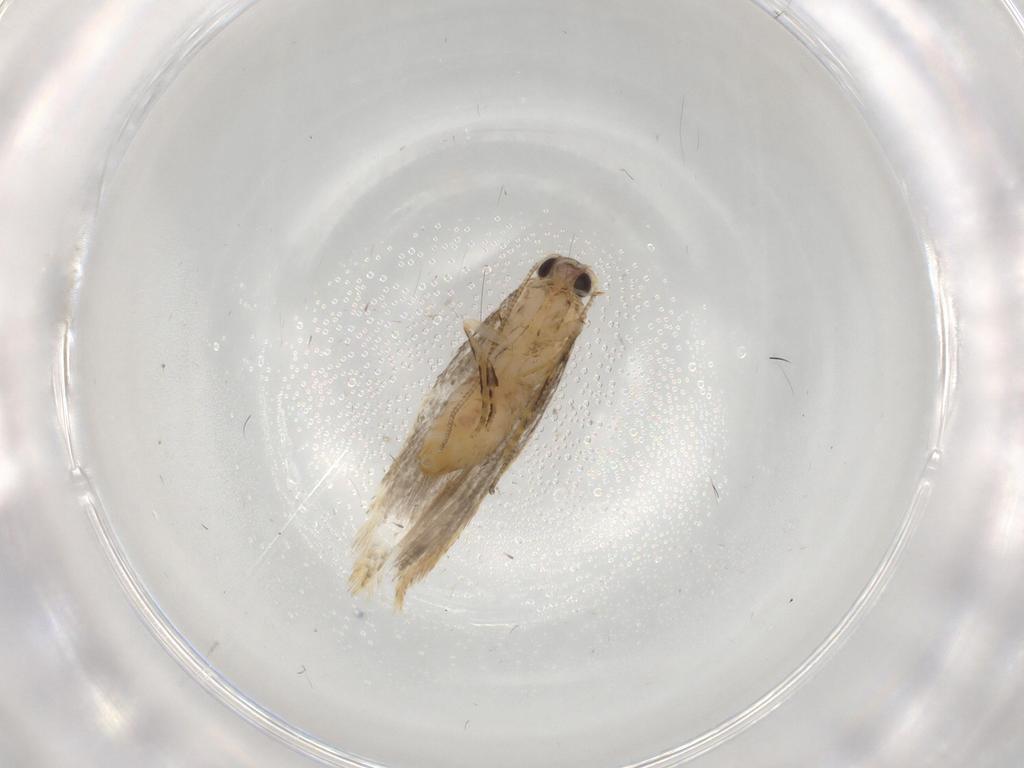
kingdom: Animalia
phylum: Arthropoda
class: Insecta
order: Lepidoptera
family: Tineidae
